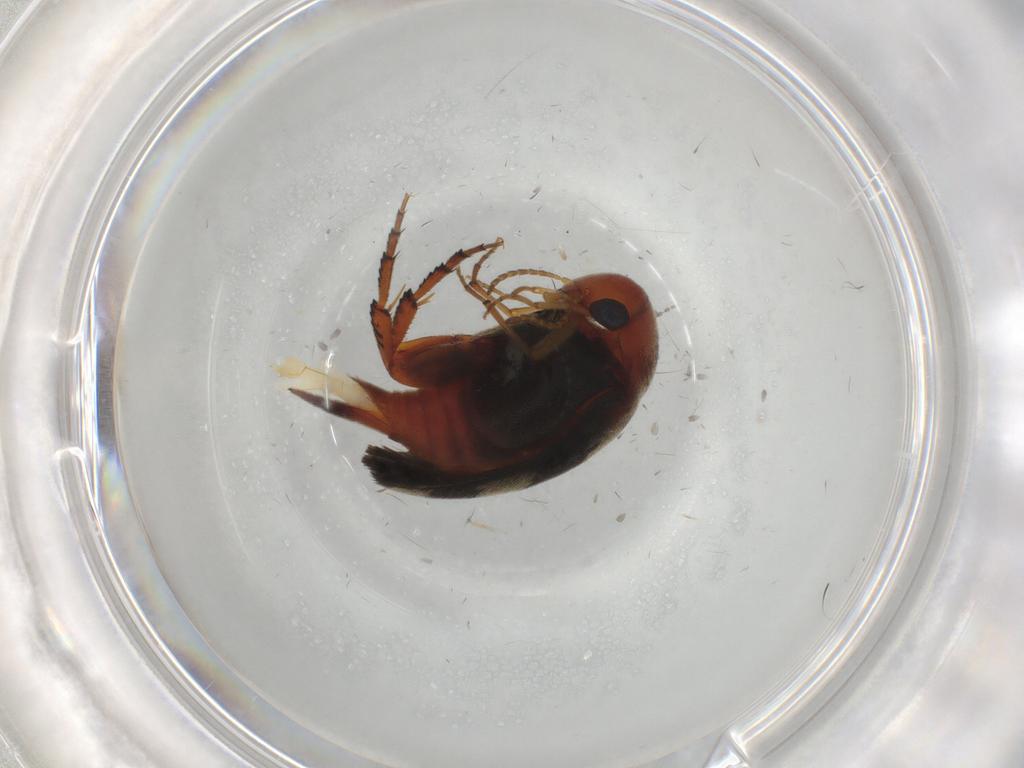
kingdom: Animalia
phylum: Arthropoda
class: Insecta
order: Coleoptera
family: Mordellidae
